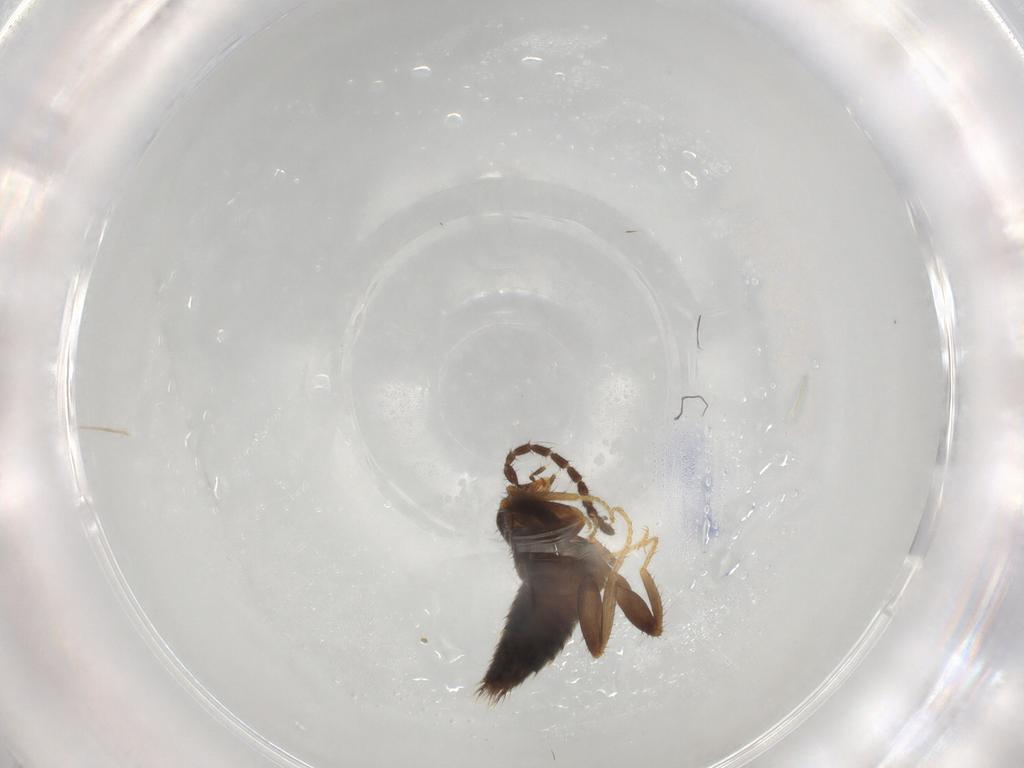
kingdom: Animalia
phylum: Arthropoda
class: Insecta
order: Coleoptera
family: Staphylinidae
